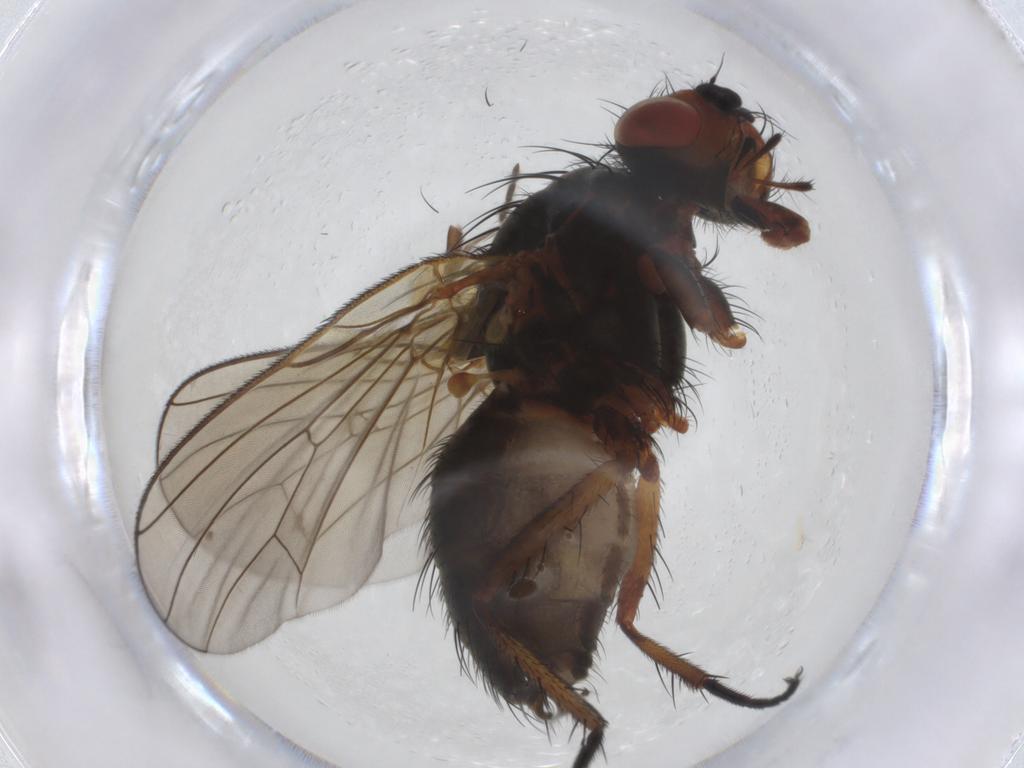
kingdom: Animalia
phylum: Arthropoda
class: Insecta
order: Diptera
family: Anthomyiidae
